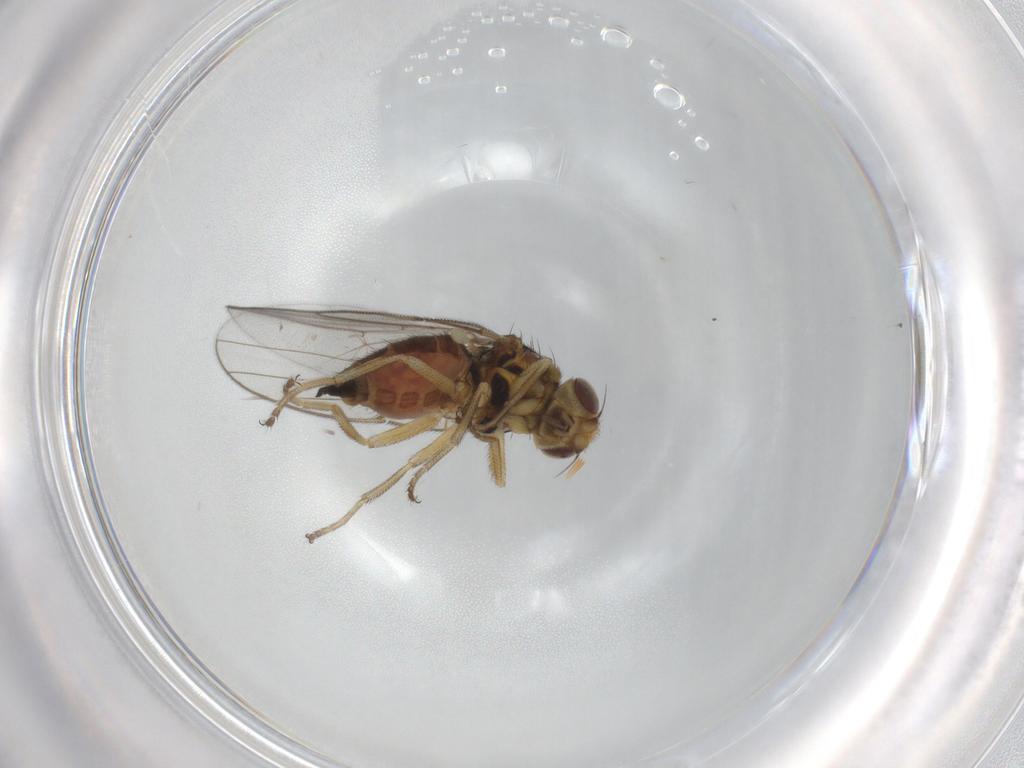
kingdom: Animalia
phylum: Arthropoda
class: Insecta
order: Diptera
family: Chloropidae
